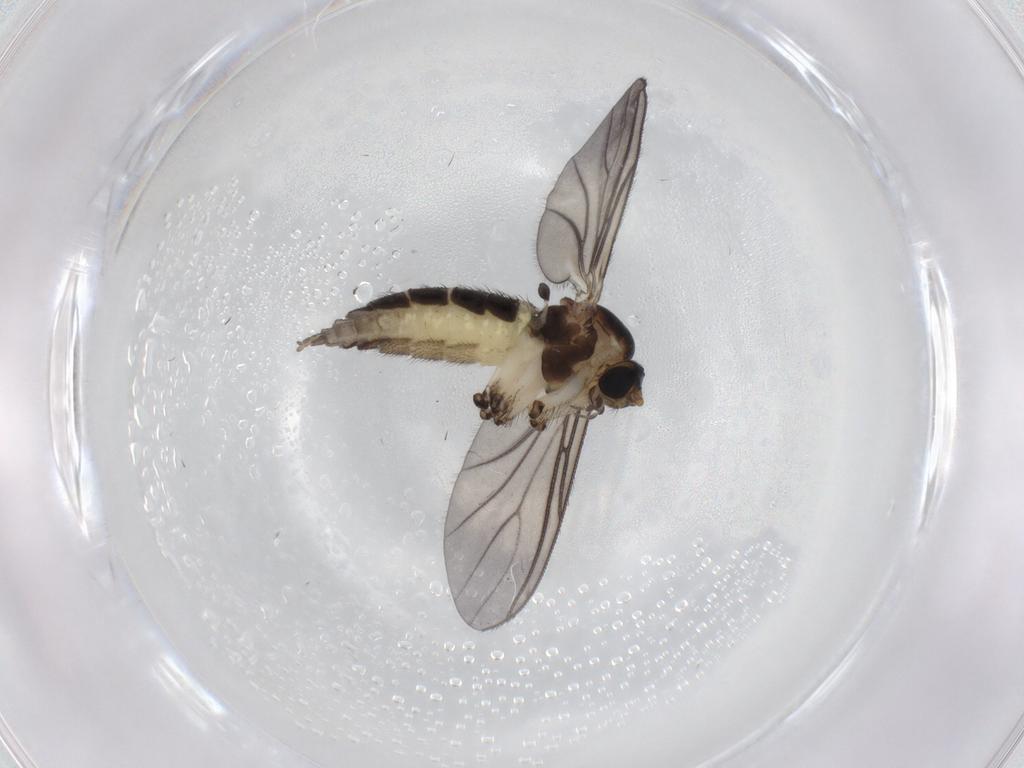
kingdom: Animalia
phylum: Arthropoda
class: Insecta
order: Diptera
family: Sciaridae
